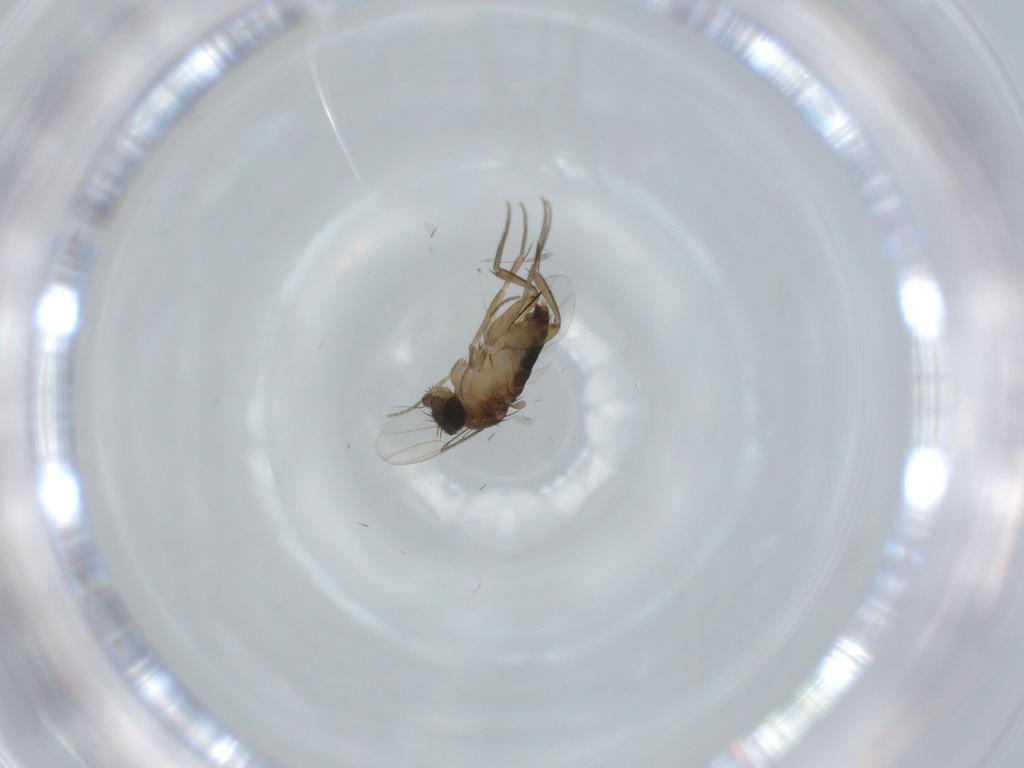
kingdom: Animalia
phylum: Arthropoda
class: Insecta
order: Diptera
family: Phoridae
